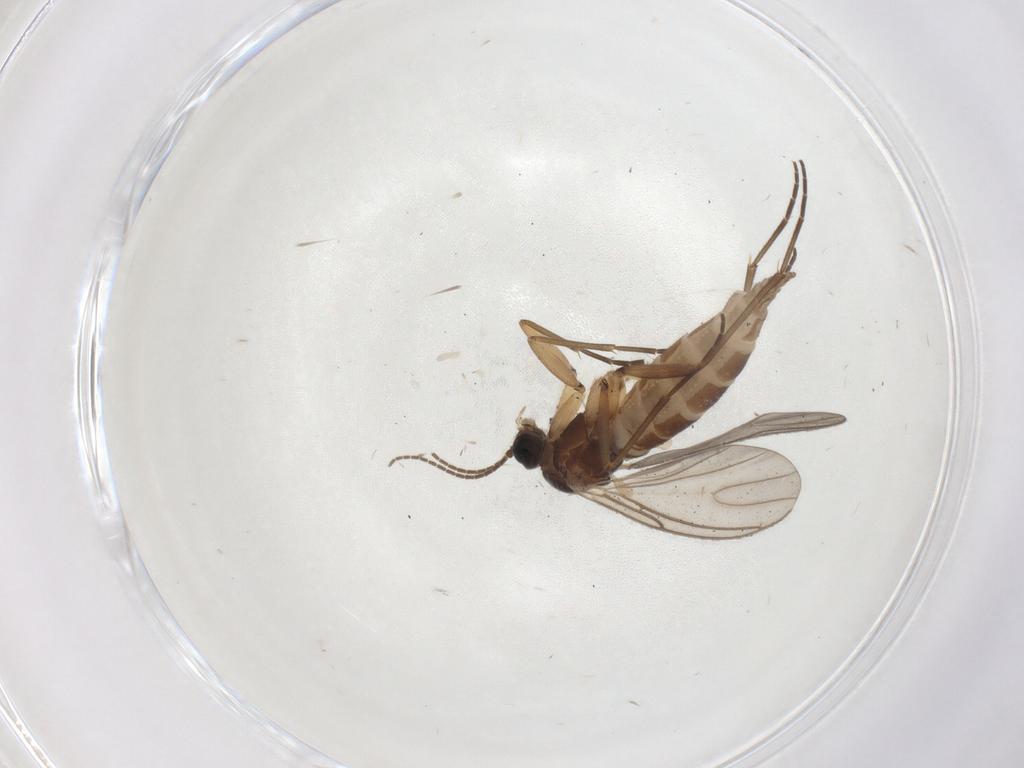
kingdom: Animalia
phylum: Arthropoda
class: Insecta
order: Diptera
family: Sciaridae
